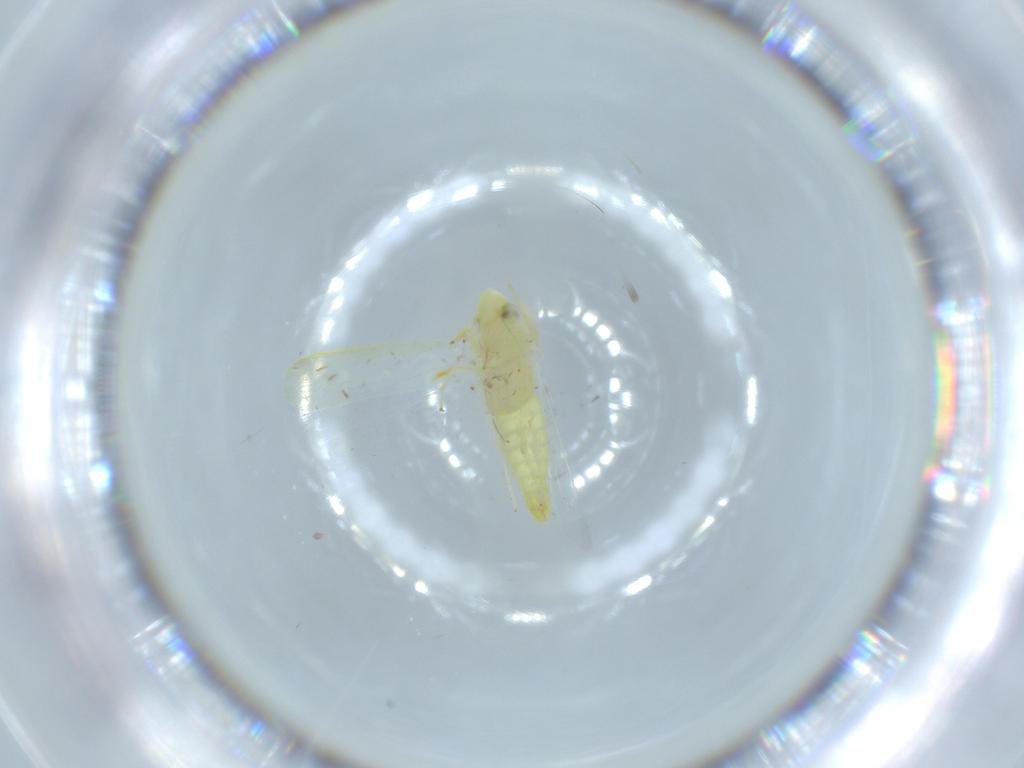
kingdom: Animalia
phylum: Arthropoda
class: Insecta
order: Hemiptera
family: Cicadellidae
